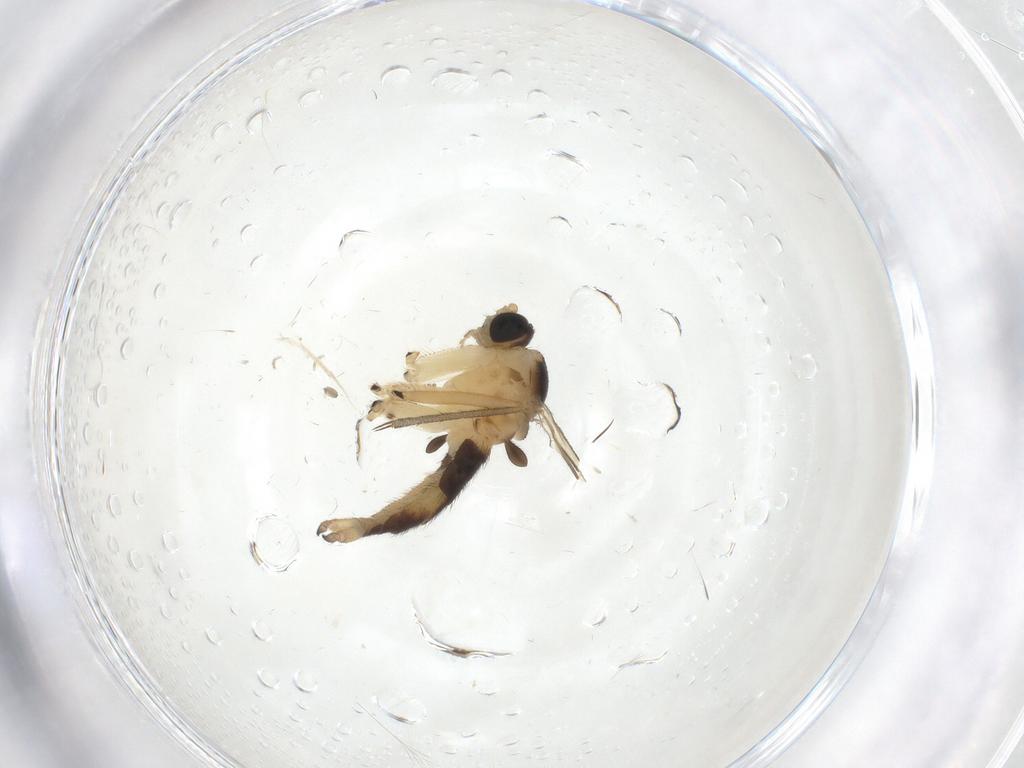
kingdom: Animalia
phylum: Arthropoda
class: Insecta
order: Diptera
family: Sciaridae
